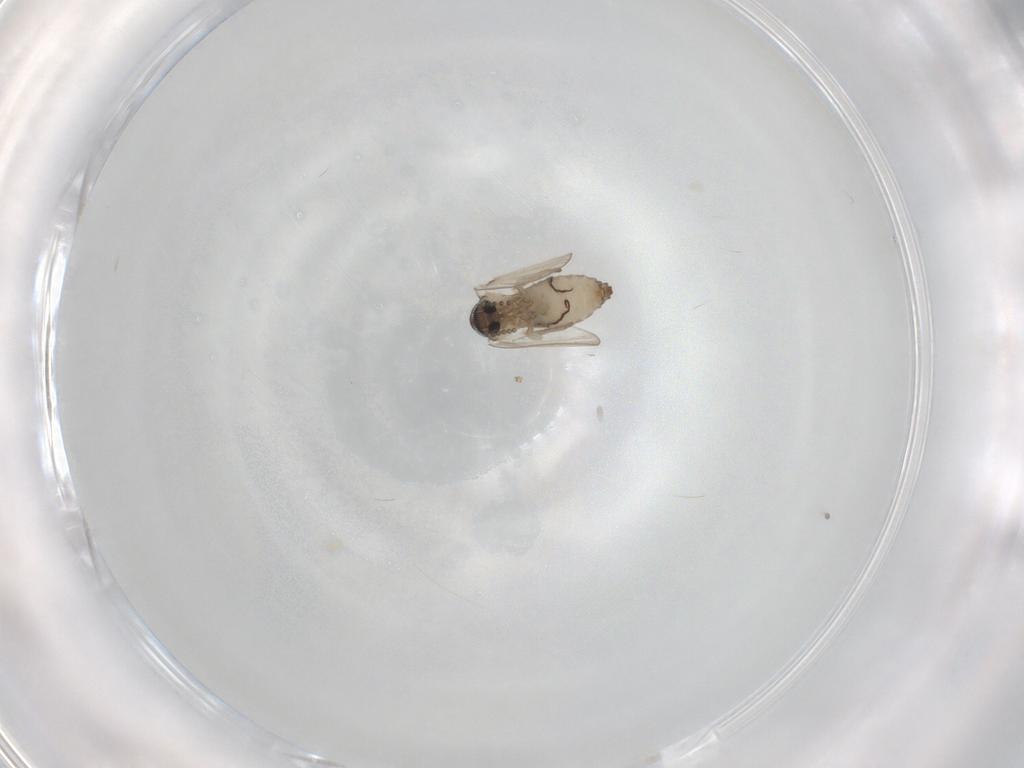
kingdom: Animalia
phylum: Arthropoda
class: Insecta
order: Diptera
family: Psychodidae
